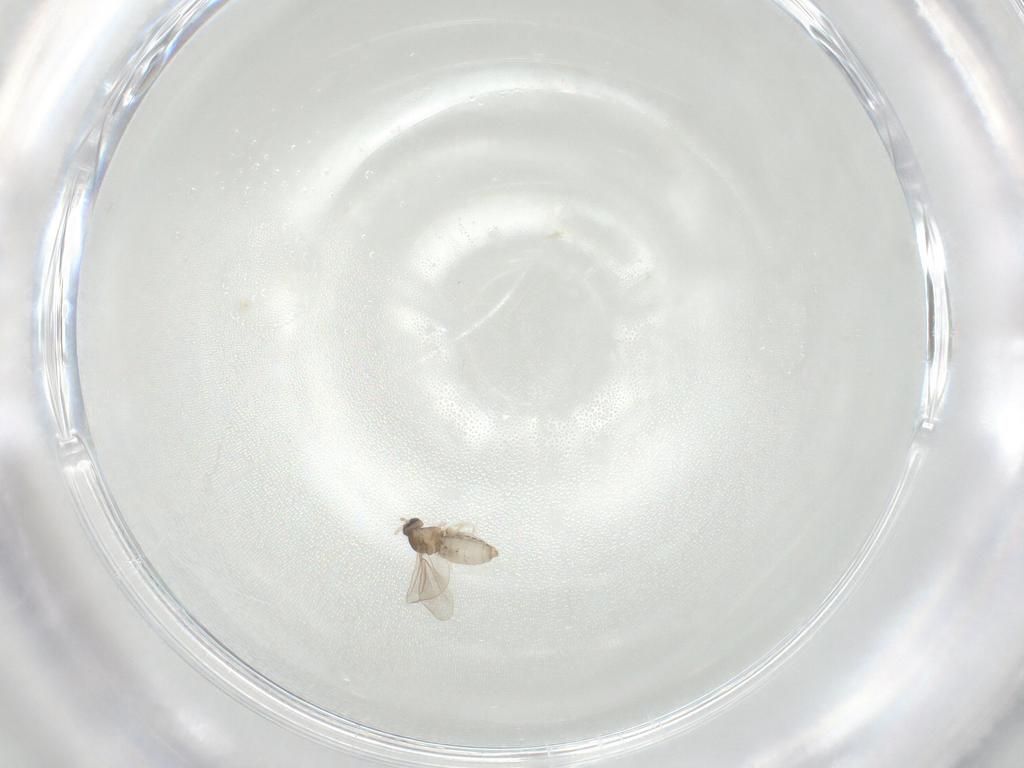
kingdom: Animalia
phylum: Arthropoda
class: Insecta
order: Diptera
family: Cecidomyiidae
